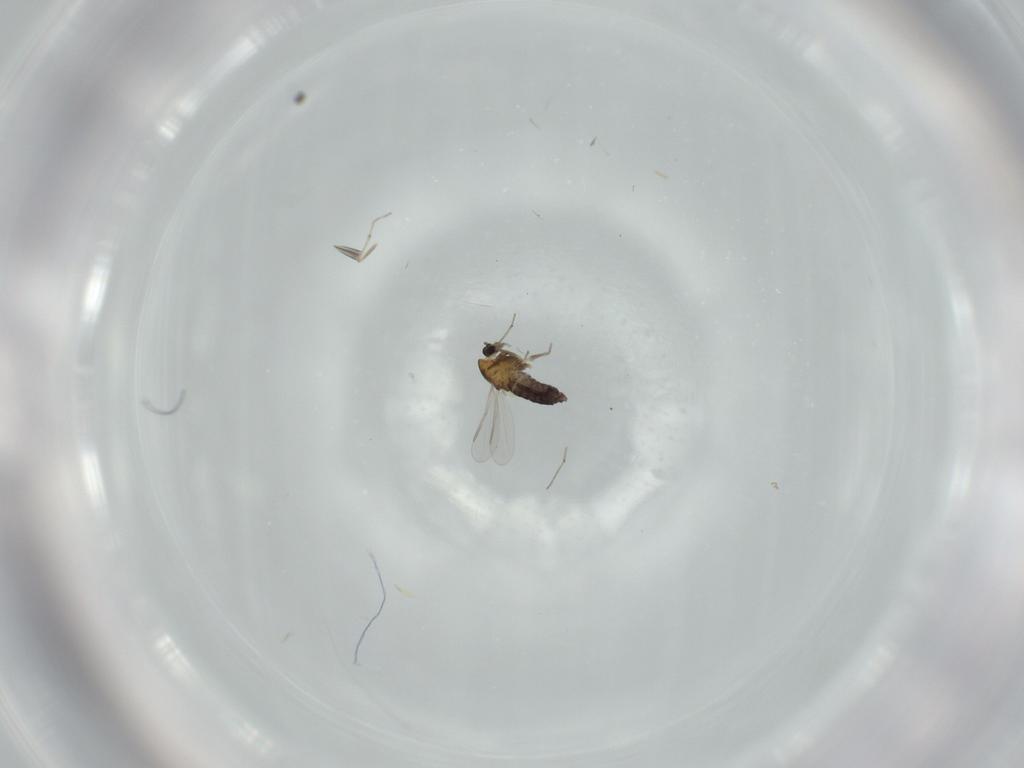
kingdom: Animalia
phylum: Arthropoda
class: Insecta
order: Diptera
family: Chironomidae
